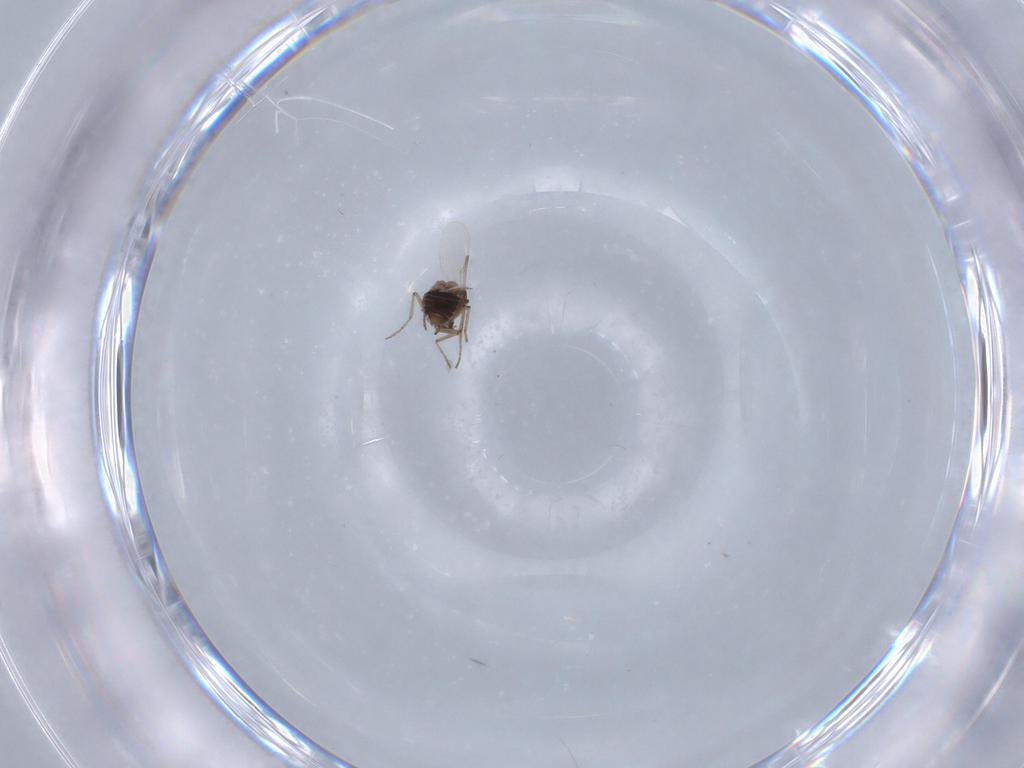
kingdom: Animalia
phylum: Arthropoda
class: Insecta
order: Diptera
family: Ceratopogonidae
